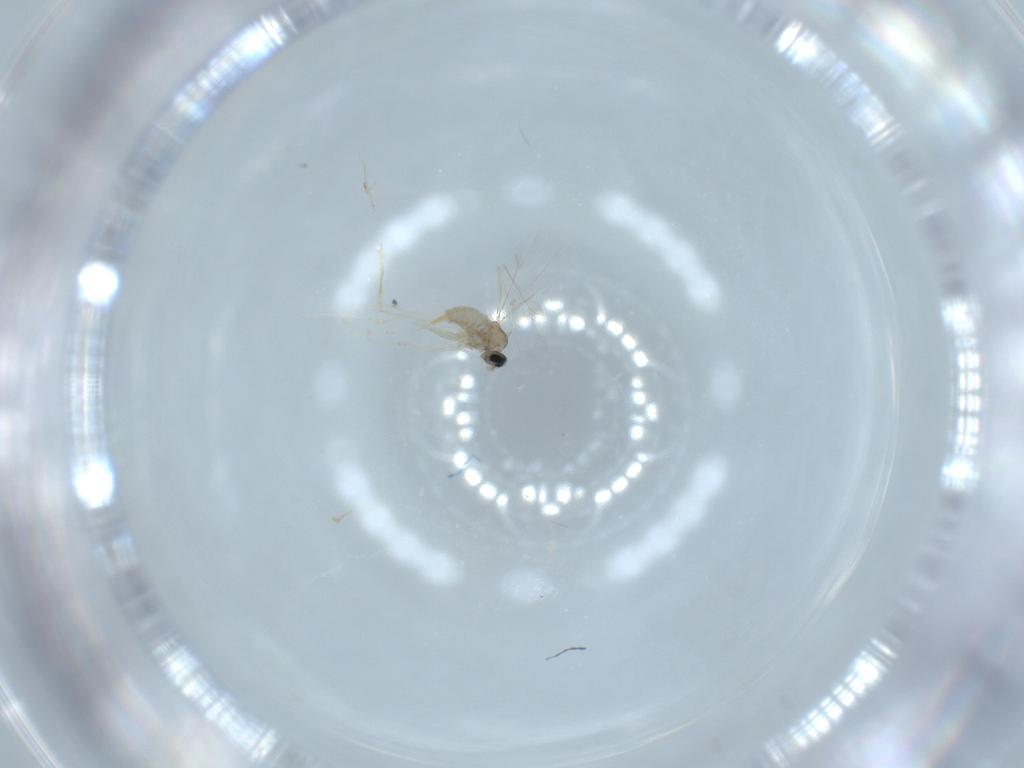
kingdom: Animalia
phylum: Arthropoda
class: Insecta
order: Diptera
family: Cecidomyiidae
